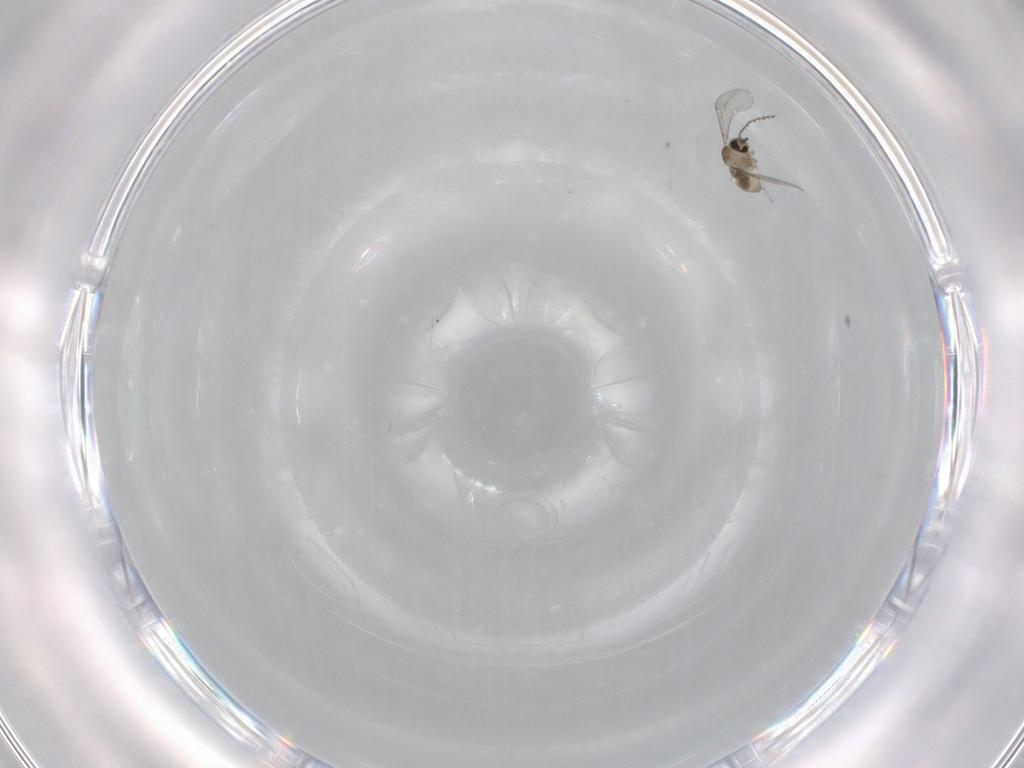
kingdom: Animalia
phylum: Arthropoda
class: Insecta
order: Diptera
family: Cecidomyiidae
